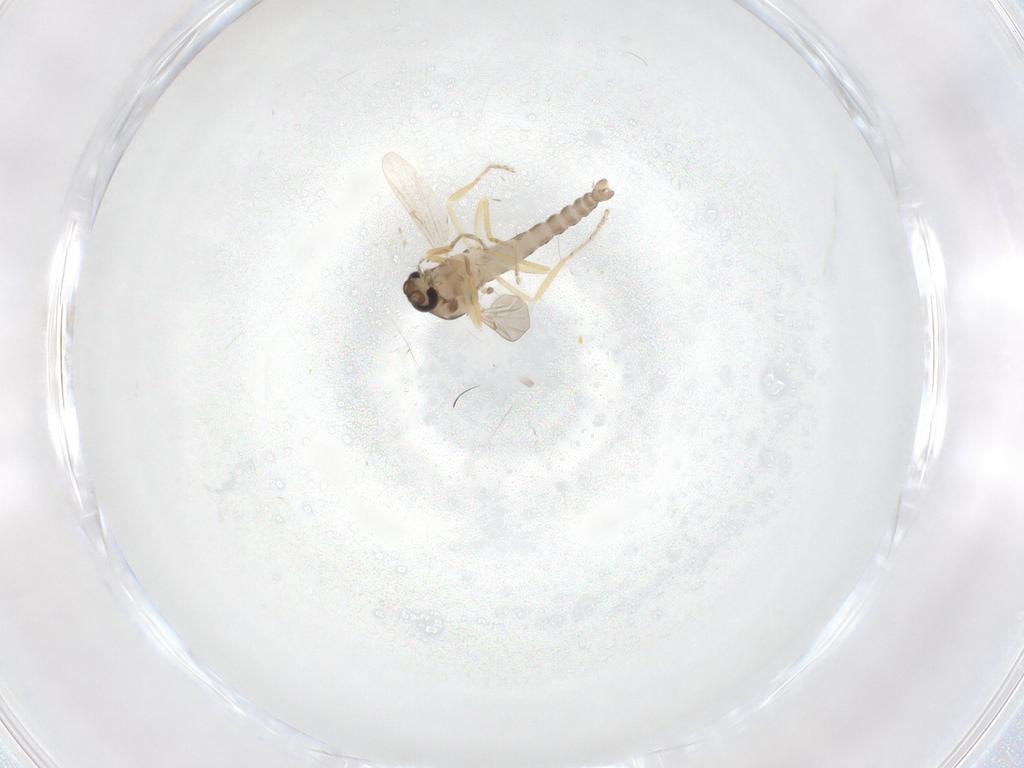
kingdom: Animalia
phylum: Arthropoda
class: Insecta
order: Diptera
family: Ceratopogonidae
